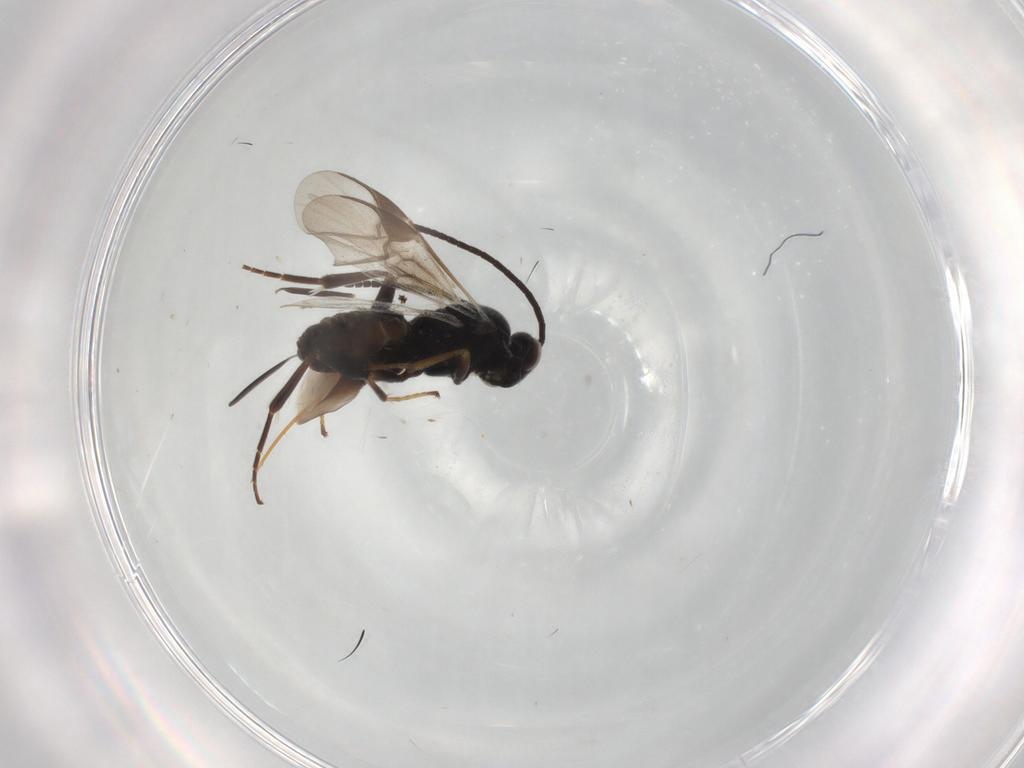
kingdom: Animalia
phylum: Arthropoda
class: Insecta
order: Hymenoptera
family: Braconidae
